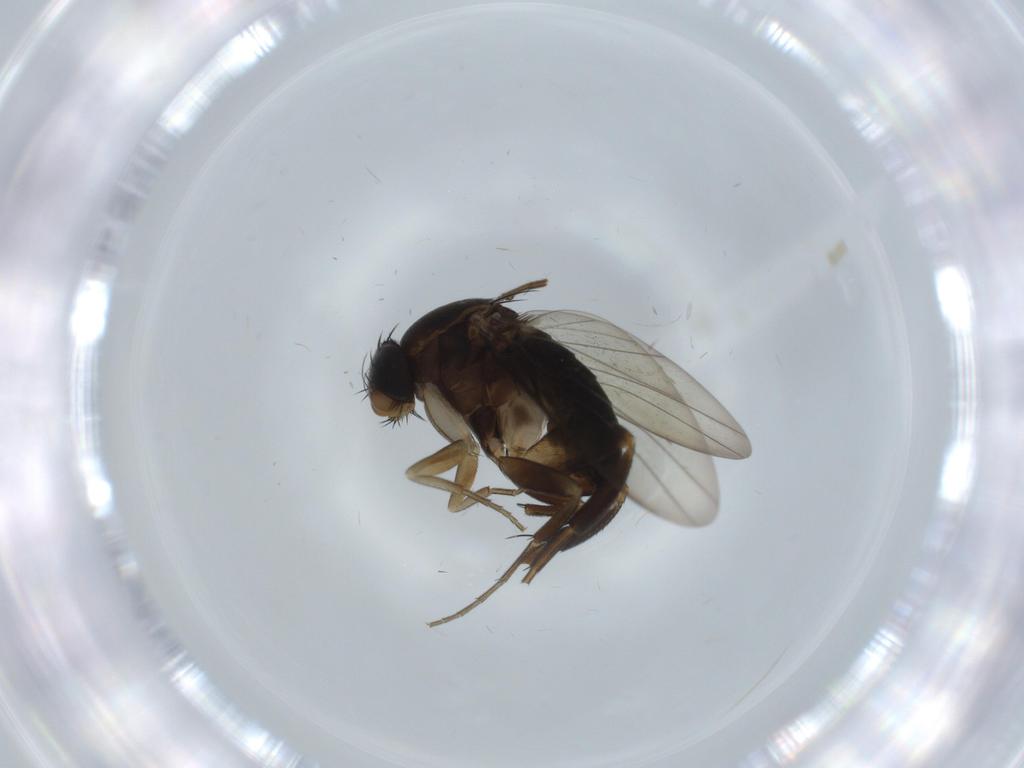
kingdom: Animalia
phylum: Arthropoda
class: Insecta
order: Diptera
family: Phoridae
